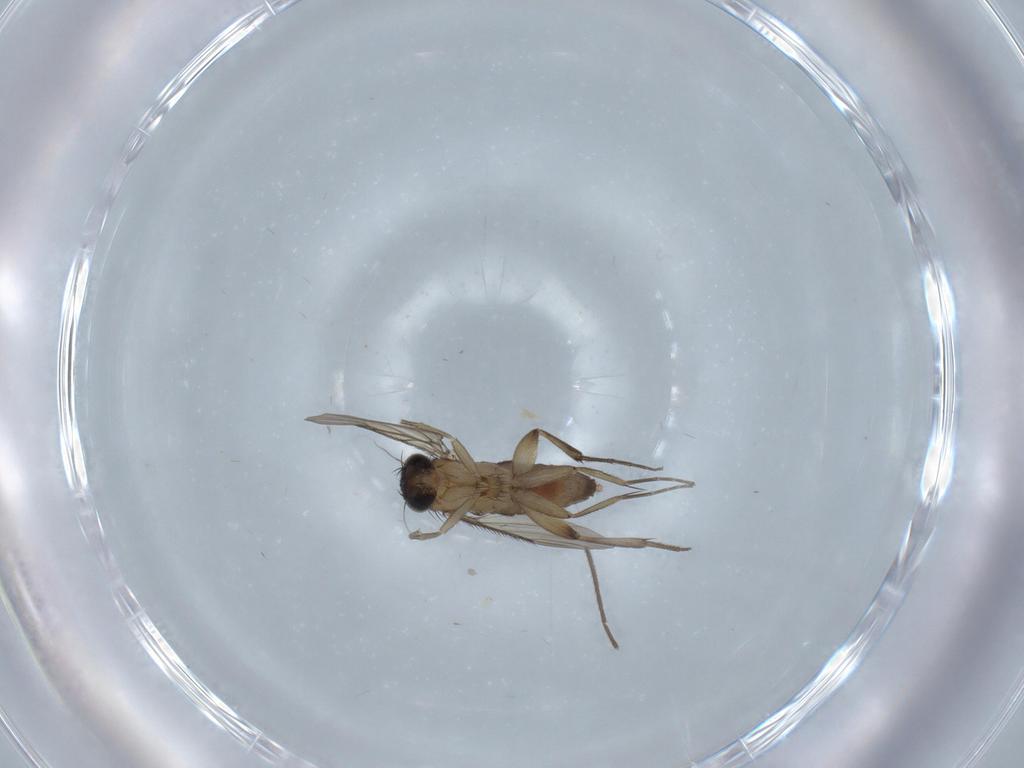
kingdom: Animalia
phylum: Arthropoda
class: Insecta
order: Diptera
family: Phoridae
